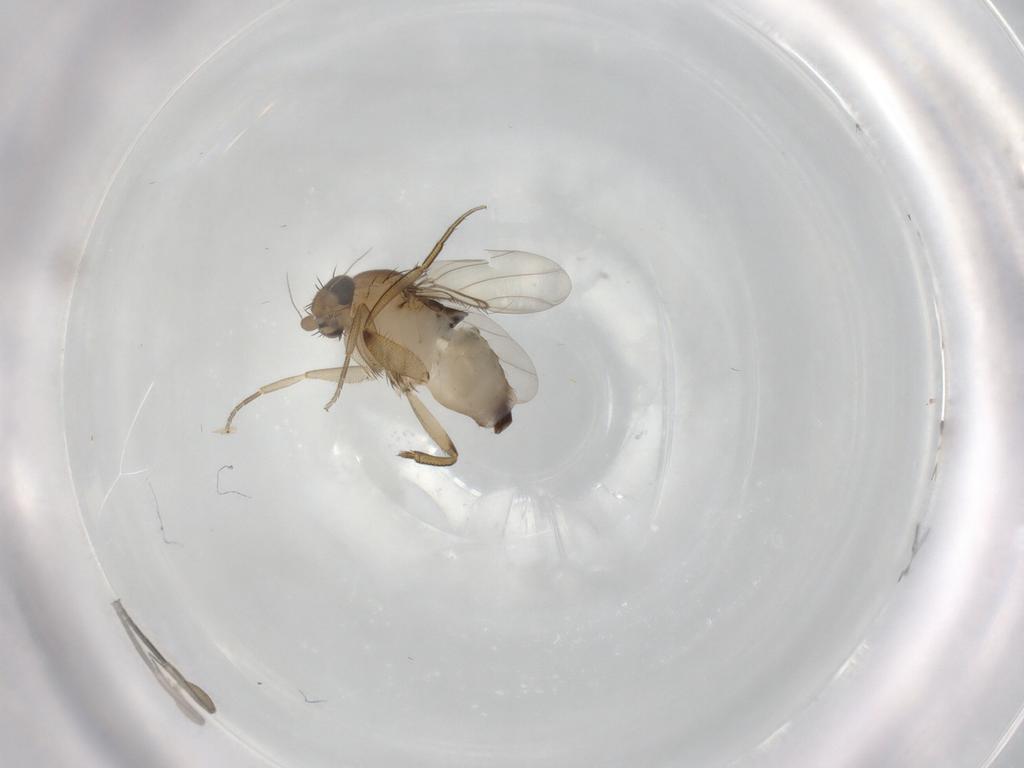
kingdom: Animalia
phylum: Arthropoda
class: Insecta
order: Diptera
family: Phoridae
